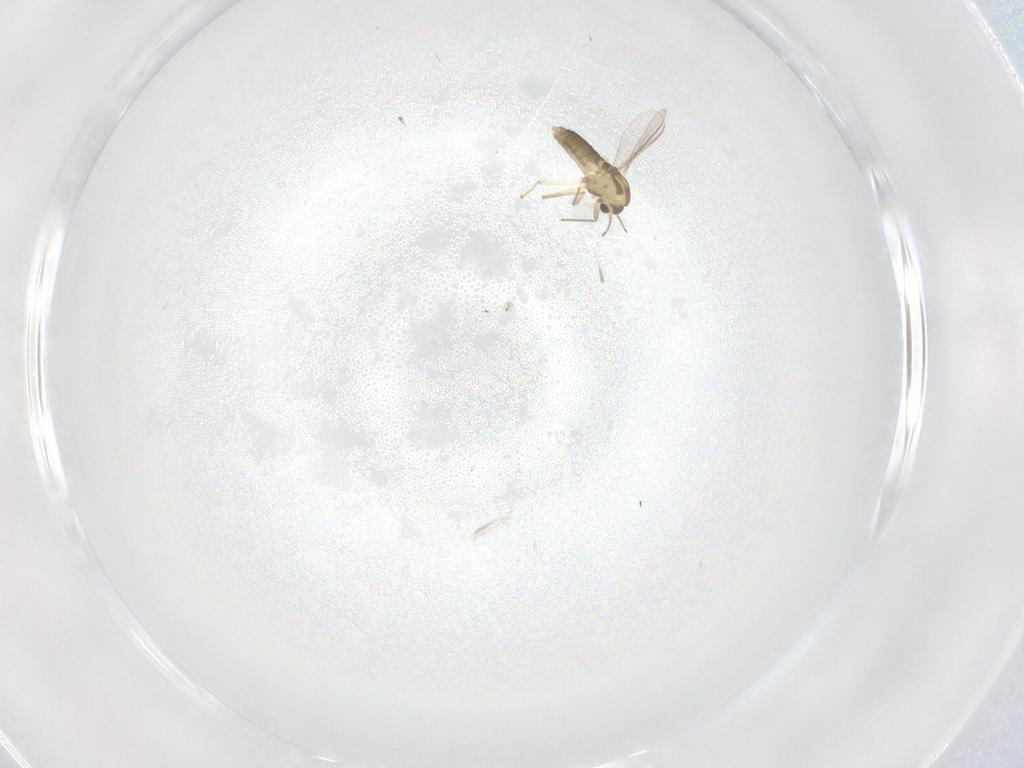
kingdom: Animalia
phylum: Arthropoda
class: Insecta
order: Diptera
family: Chironomidae
